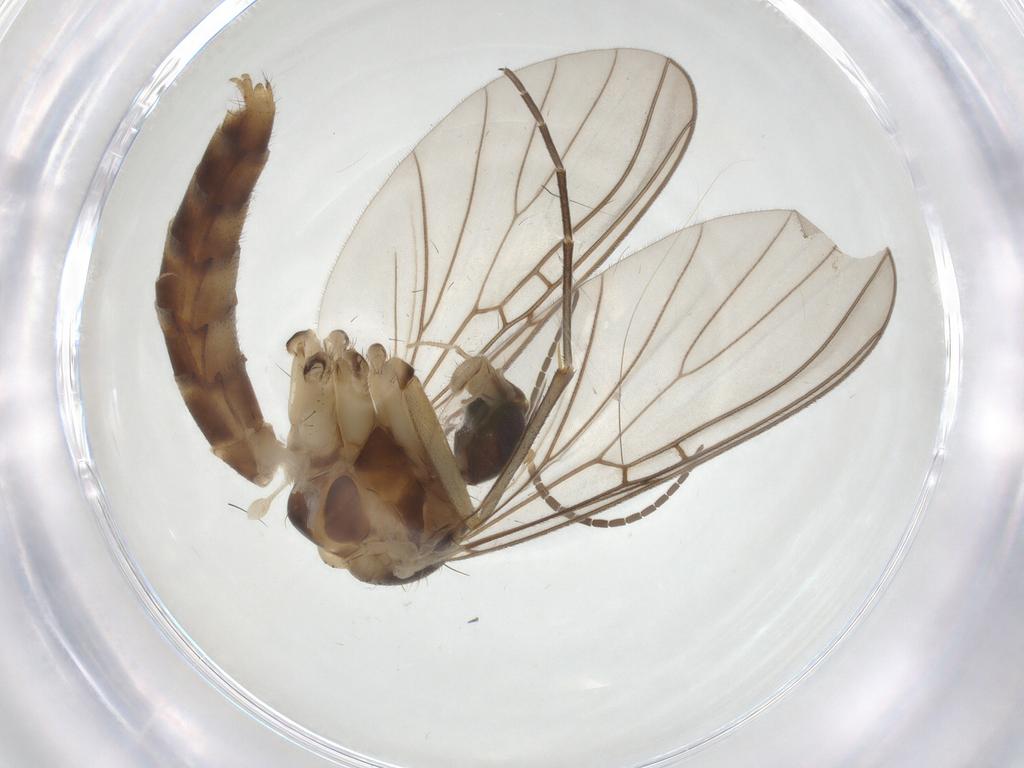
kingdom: Animalia
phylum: Arthropoda
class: Insecta
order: Diptera
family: Mycetophilidae
